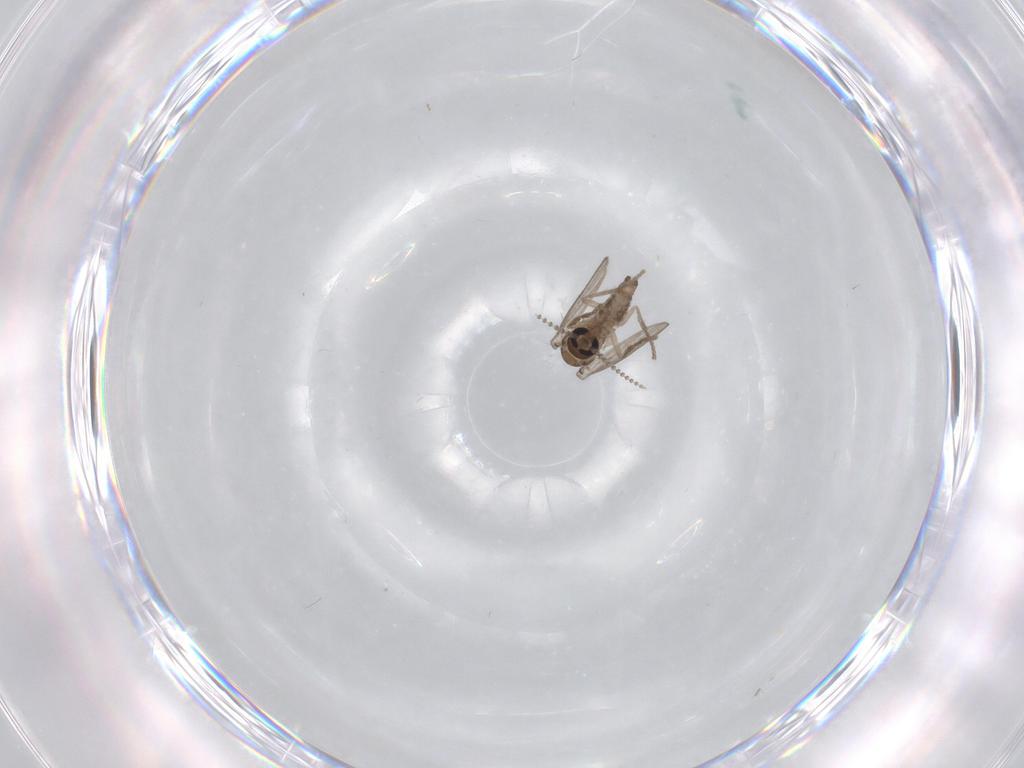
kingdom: Animalia
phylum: Arthropoda
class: Insecta
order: Diptera
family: Psychodidae
